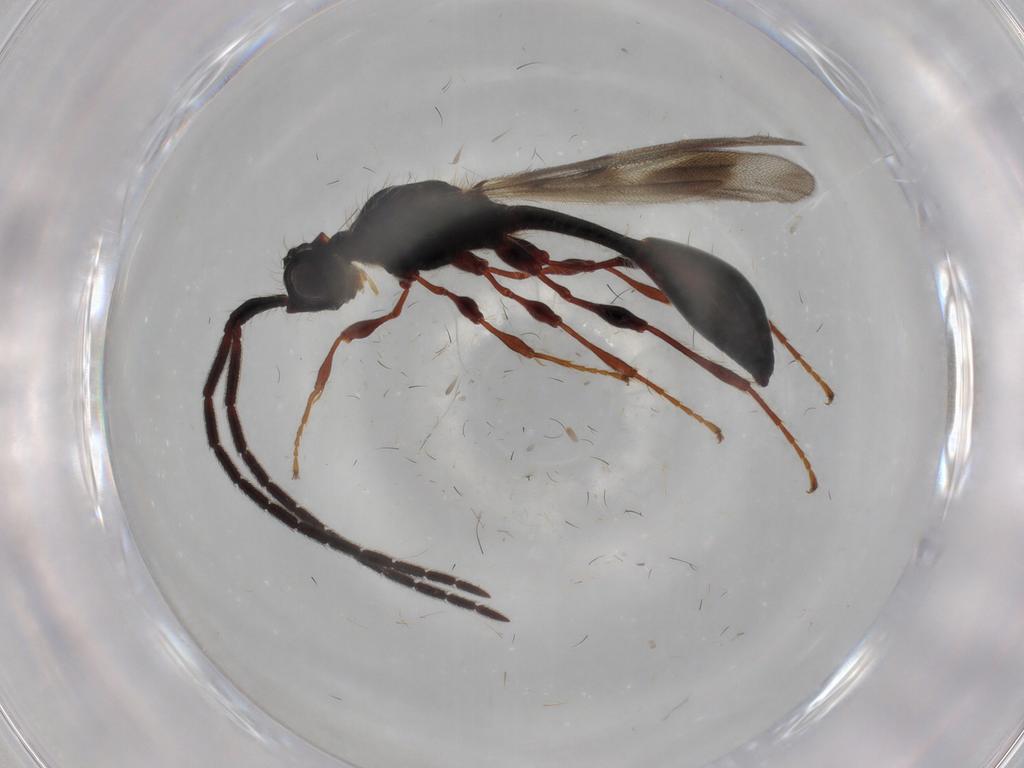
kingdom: Animalia
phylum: Arthropoda
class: Insecta
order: Hymenoptera
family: Diapriidae
